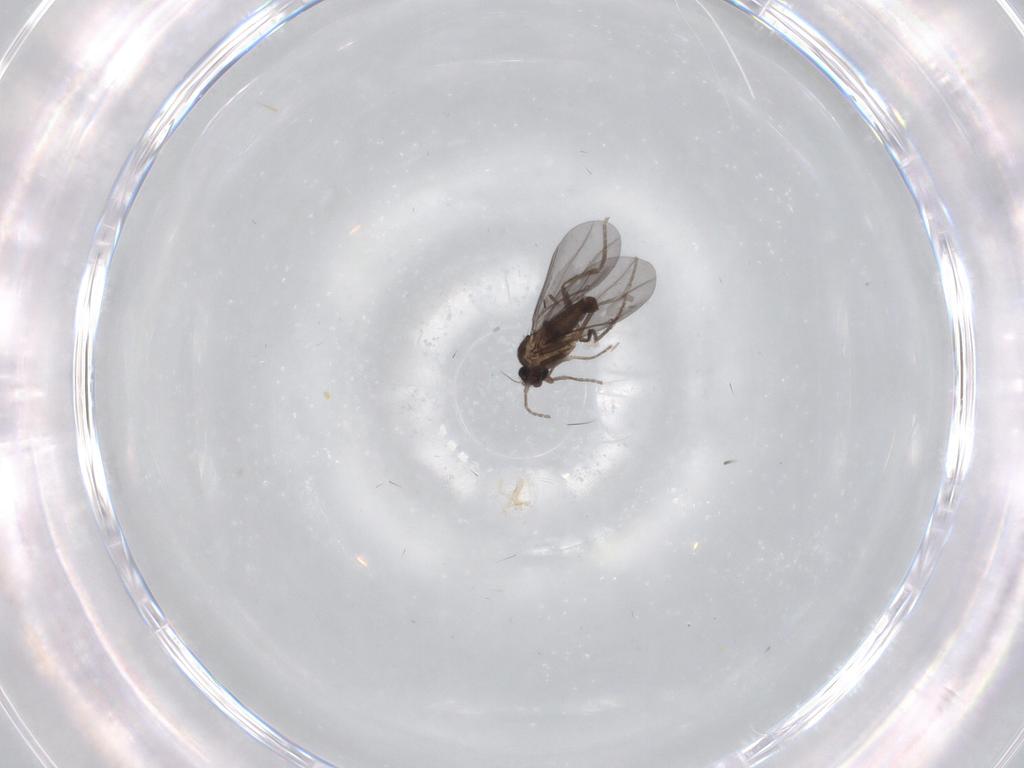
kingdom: Animalia
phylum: Arthropoda
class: Insecta
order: Diptera
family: Phoridae
